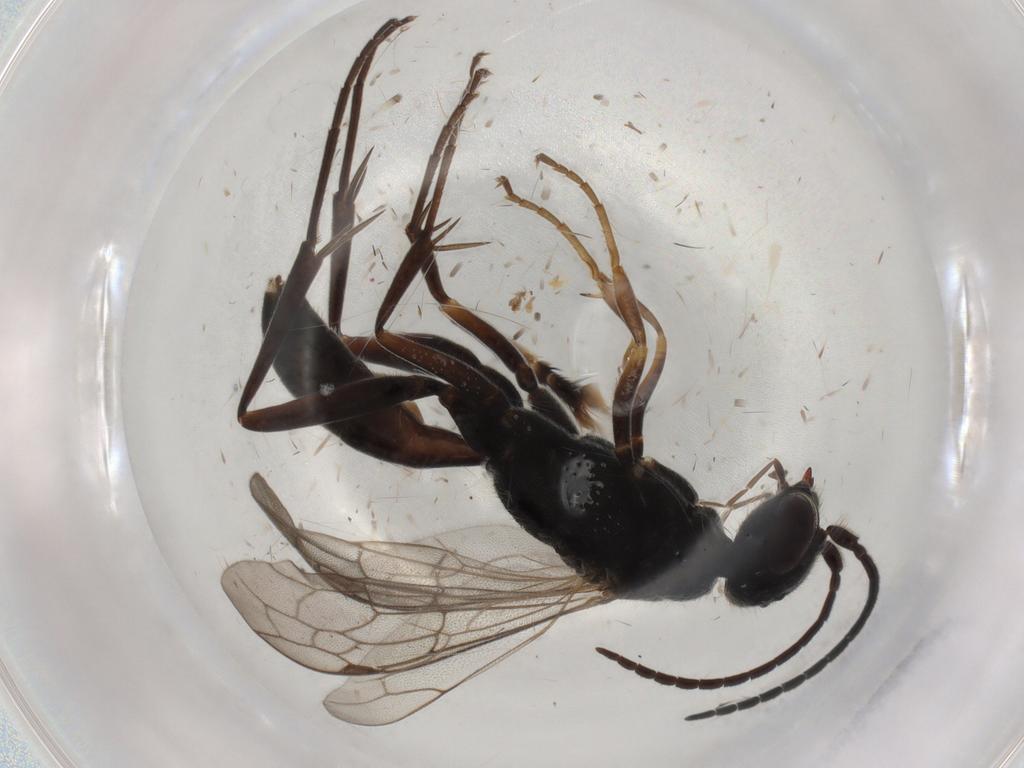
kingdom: Animalia
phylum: Arthropoda
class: Insecta
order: Hymenoptera
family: Pompilidae
